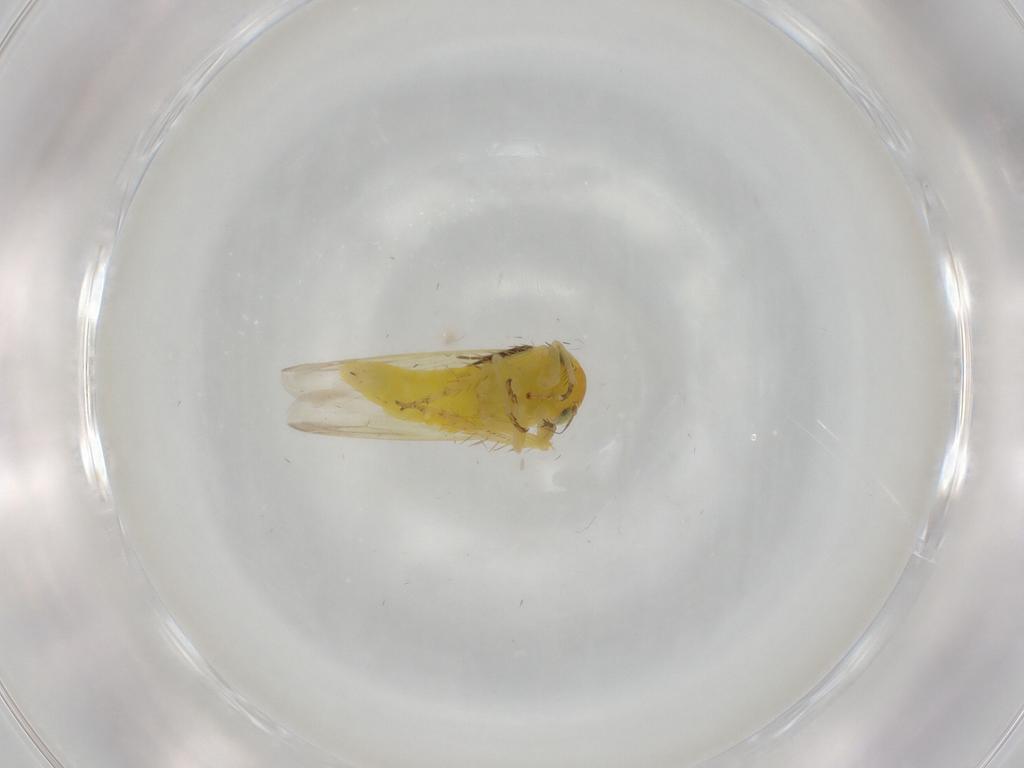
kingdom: Animalia
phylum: Arthropoda
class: Insecta
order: Hemiptera
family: Cicadellidae
